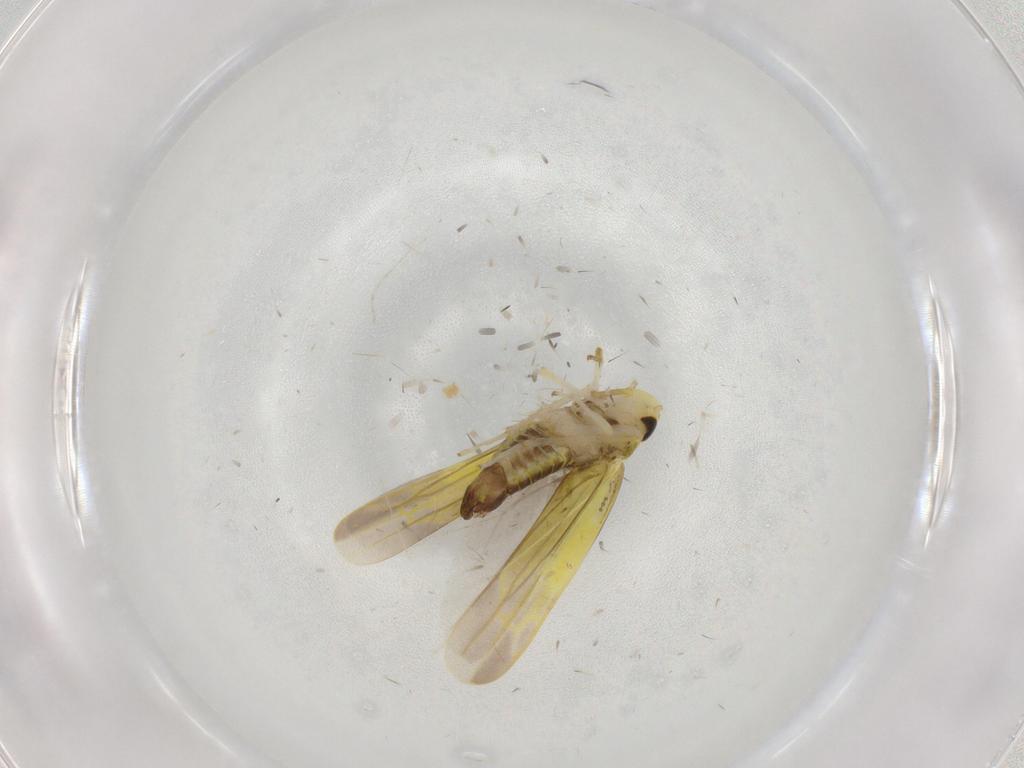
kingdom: Animalia
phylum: Arthropoda
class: Insecta
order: Hemiptera
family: Cicadellidae
